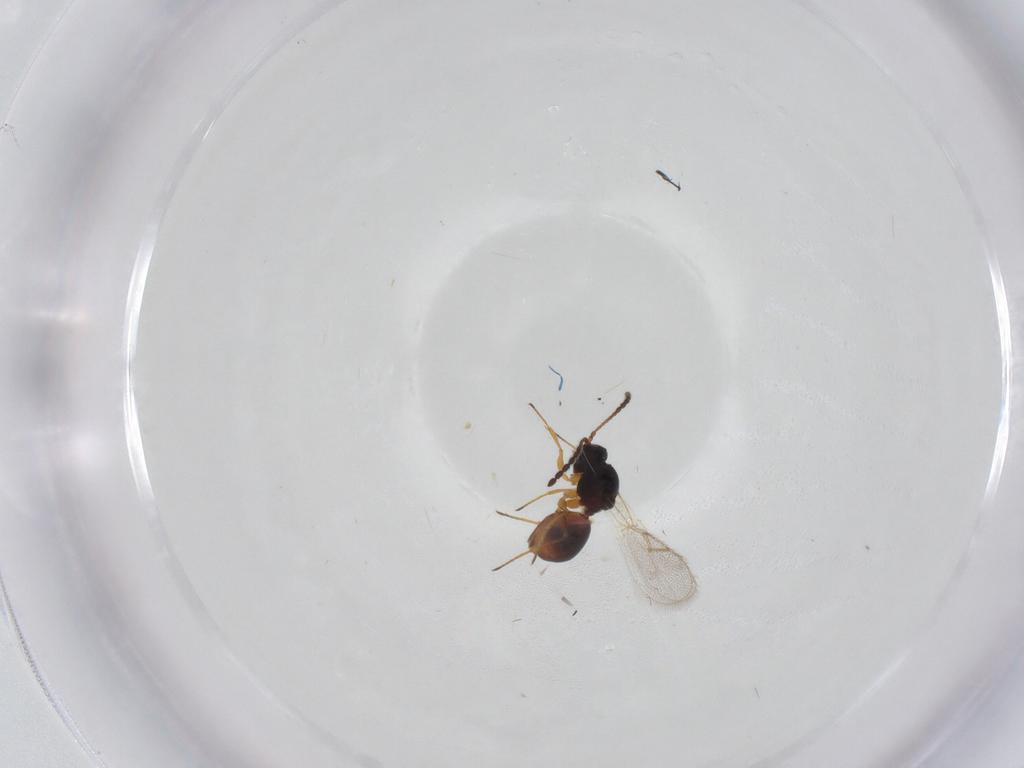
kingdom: Animalia
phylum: Arthropoda
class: Insecta
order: Hymenoptera
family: Figitidae
